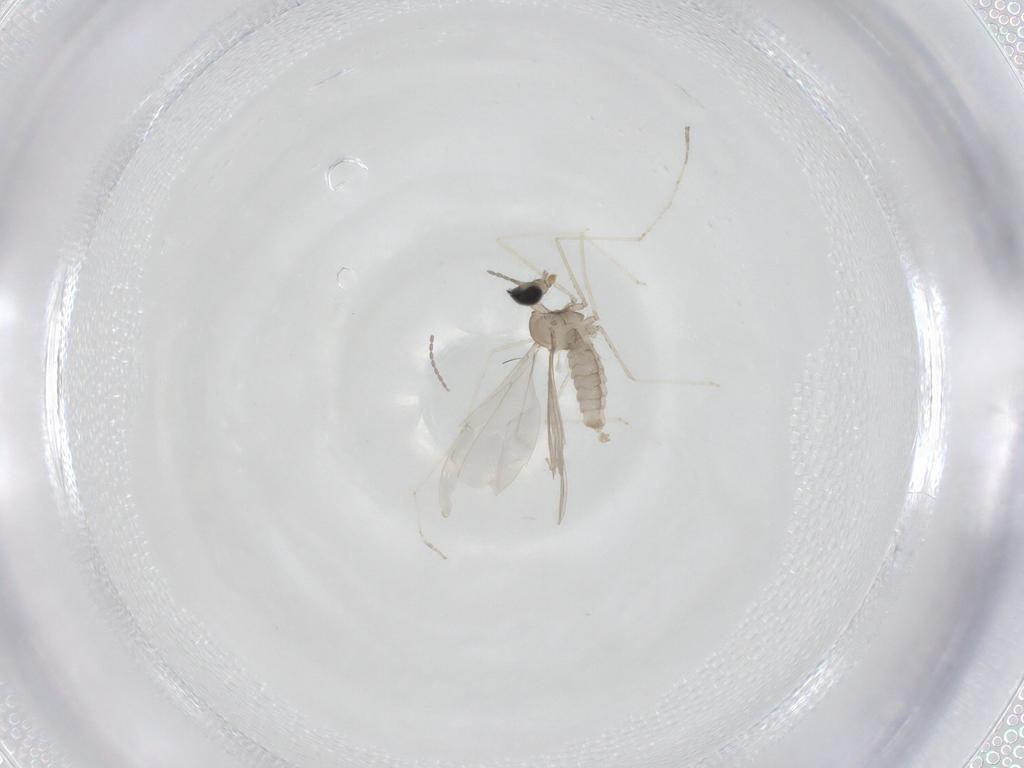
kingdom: Animalia
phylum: Arthropoda
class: Insecta
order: Diptera
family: Cecidomyiidae
